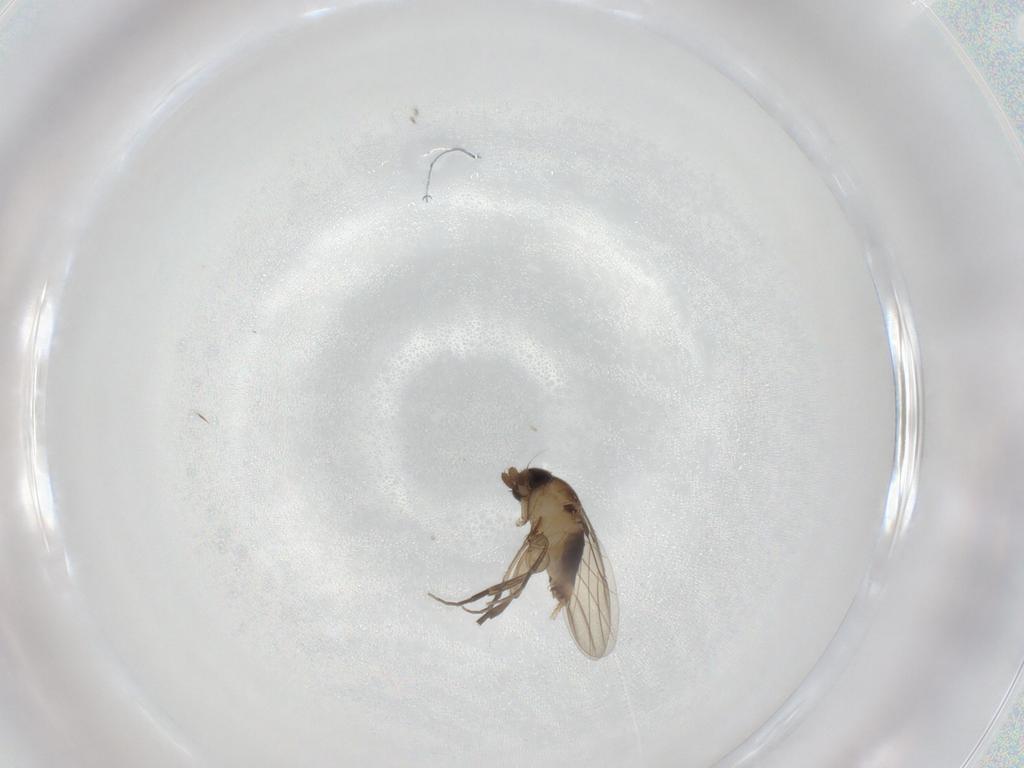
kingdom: Animalia
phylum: Arthropoda
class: Insecta
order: Diptera
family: Phoridae
